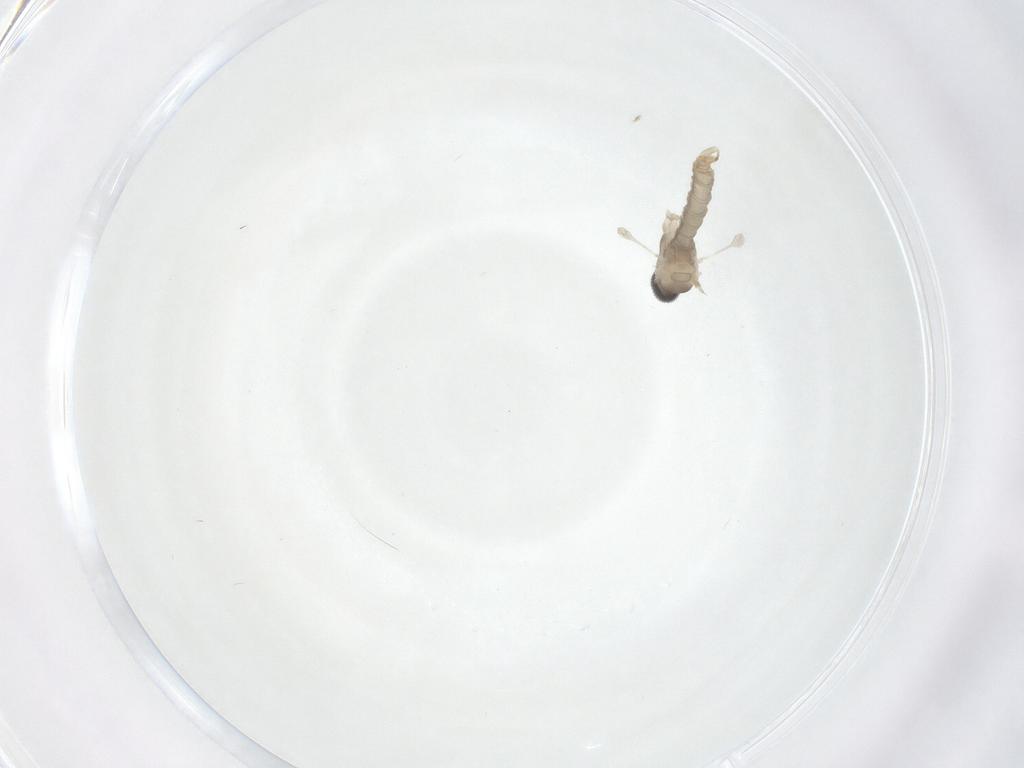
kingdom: Animalia
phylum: Arthropoda
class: Insecta
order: Diptera
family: Cecidomyiidae
